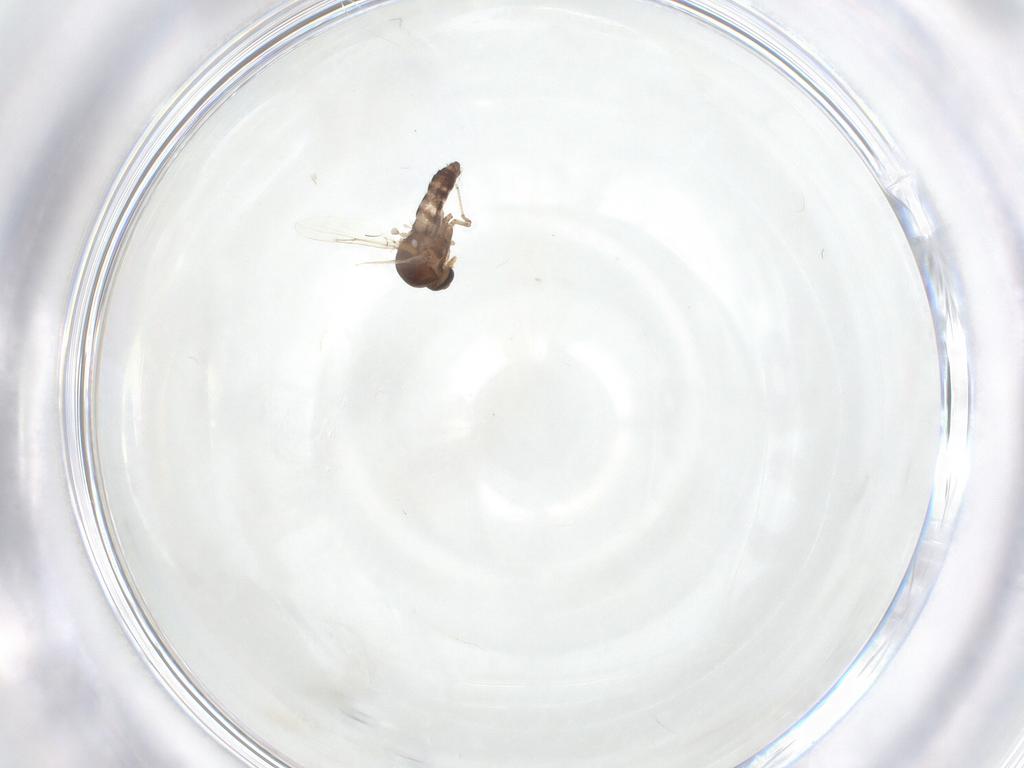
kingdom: Animalia
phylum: Arthropoda
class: Insecta
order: Diptera
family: Ceratopogonidae
